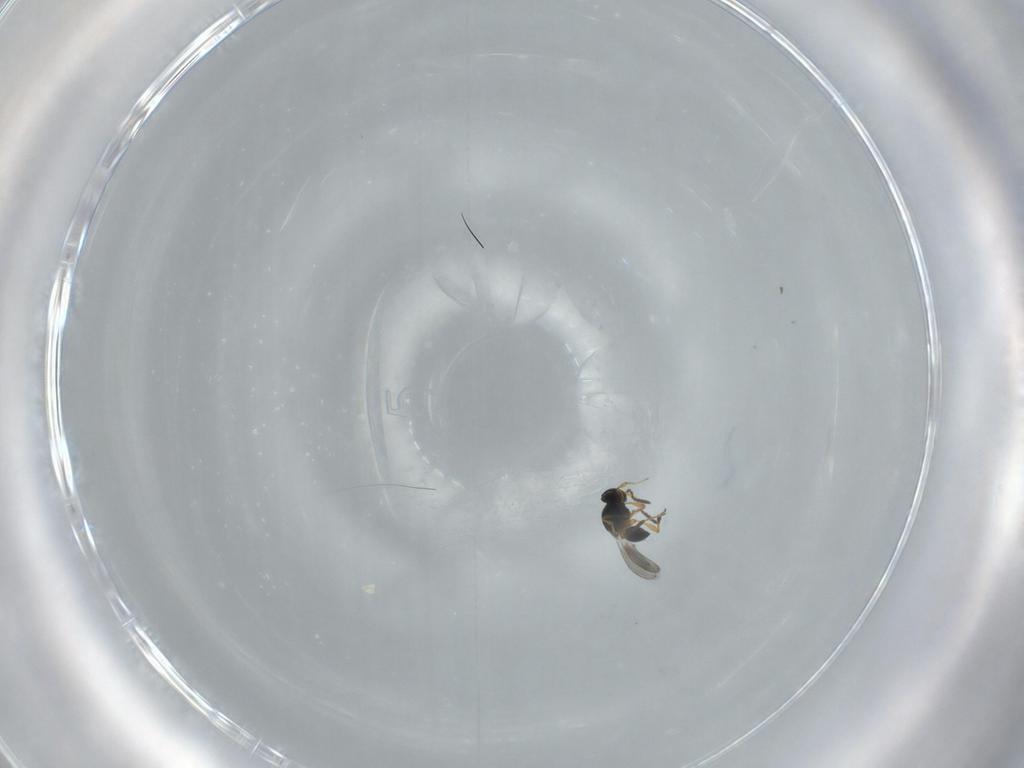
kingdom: Animalia
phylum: Arthropoda
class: Insecta
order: Hymenoptera
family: Platygastridae
